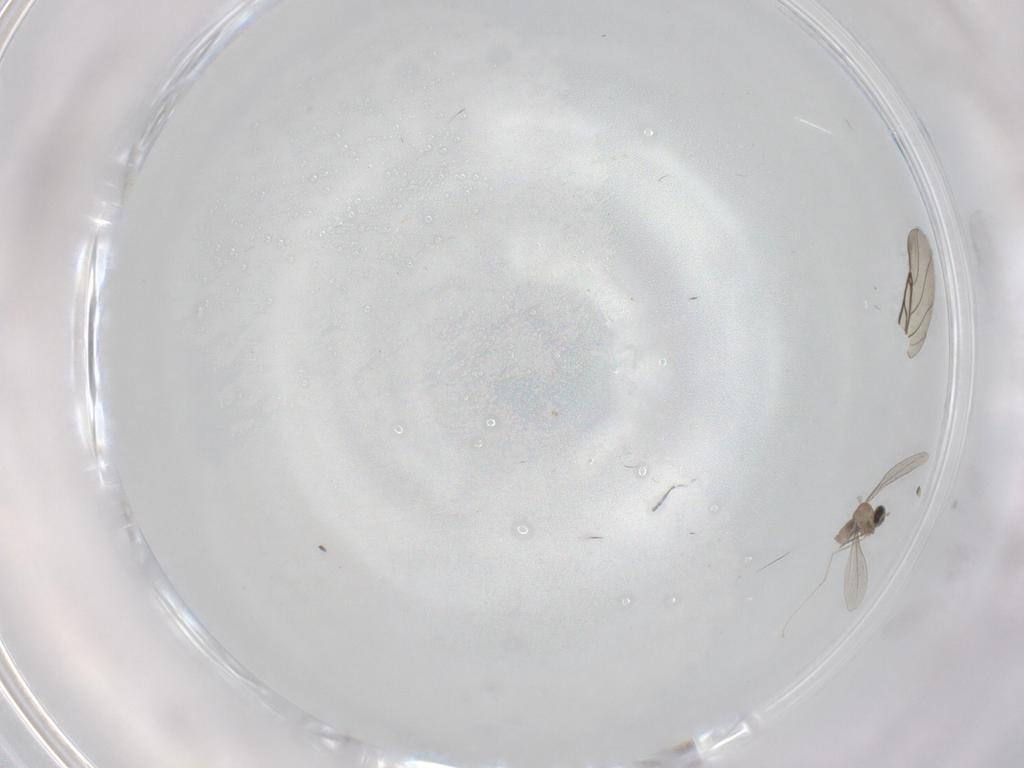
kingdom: Animalia
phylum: Arthropoda
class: Insecta
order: Diptera
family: Cecidomyiidae
